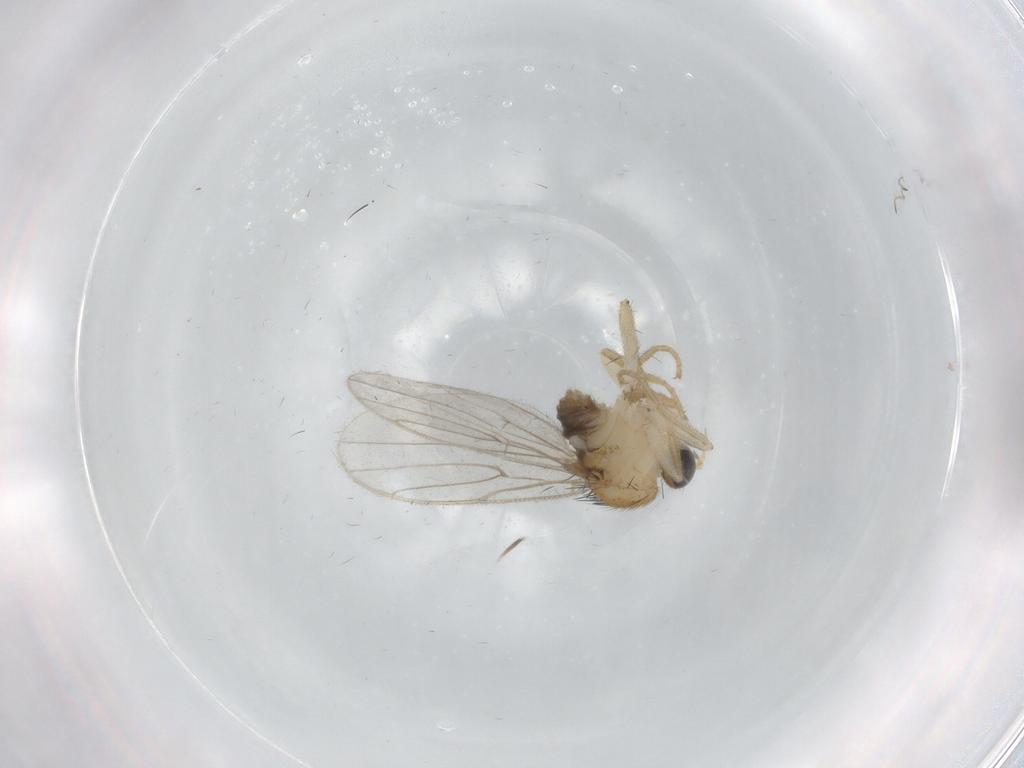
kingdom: Animalia
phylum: Arthropoda
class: Insecta
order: Diptera
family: Hybotidae
